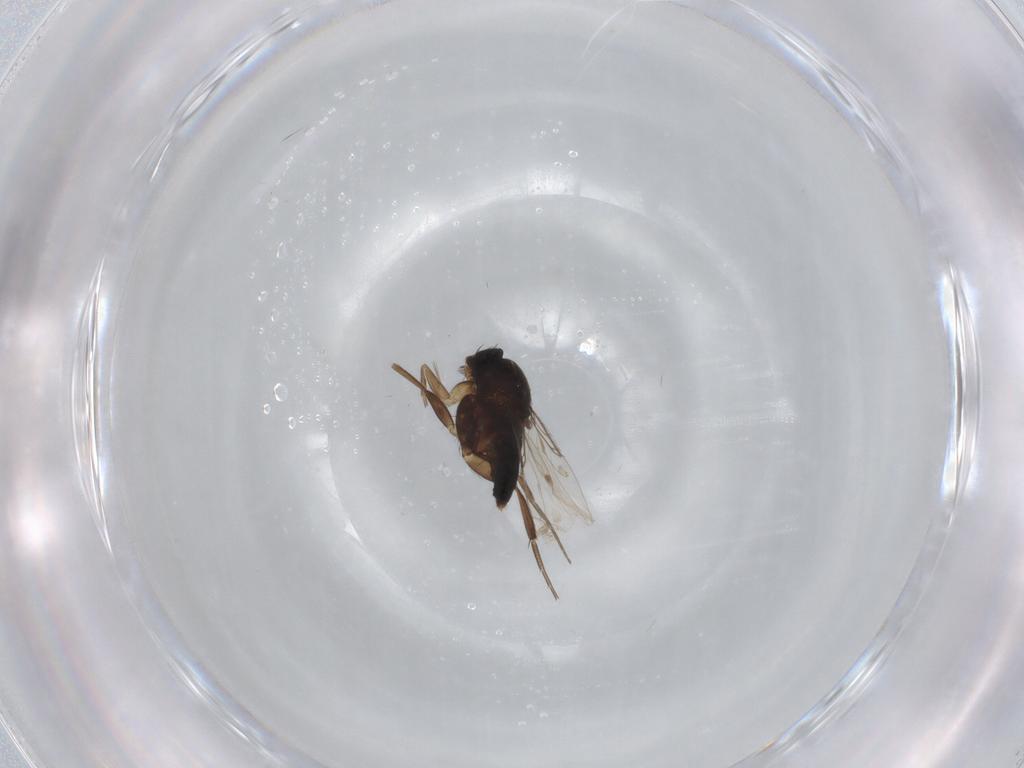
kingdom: Animalia
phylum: Arthropoda
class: Insecta
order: Diptera
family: Phoridae
